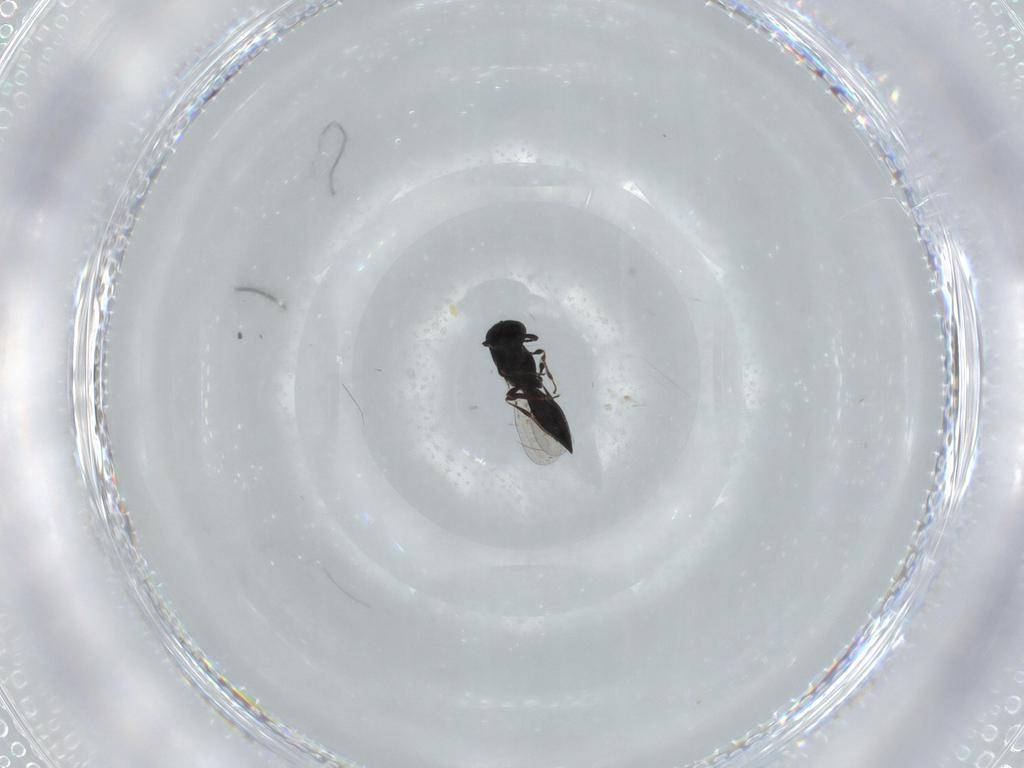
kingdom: Animalia
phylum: Arthropoda
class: Insecta
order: Hymenoptera
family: Platygastridae
